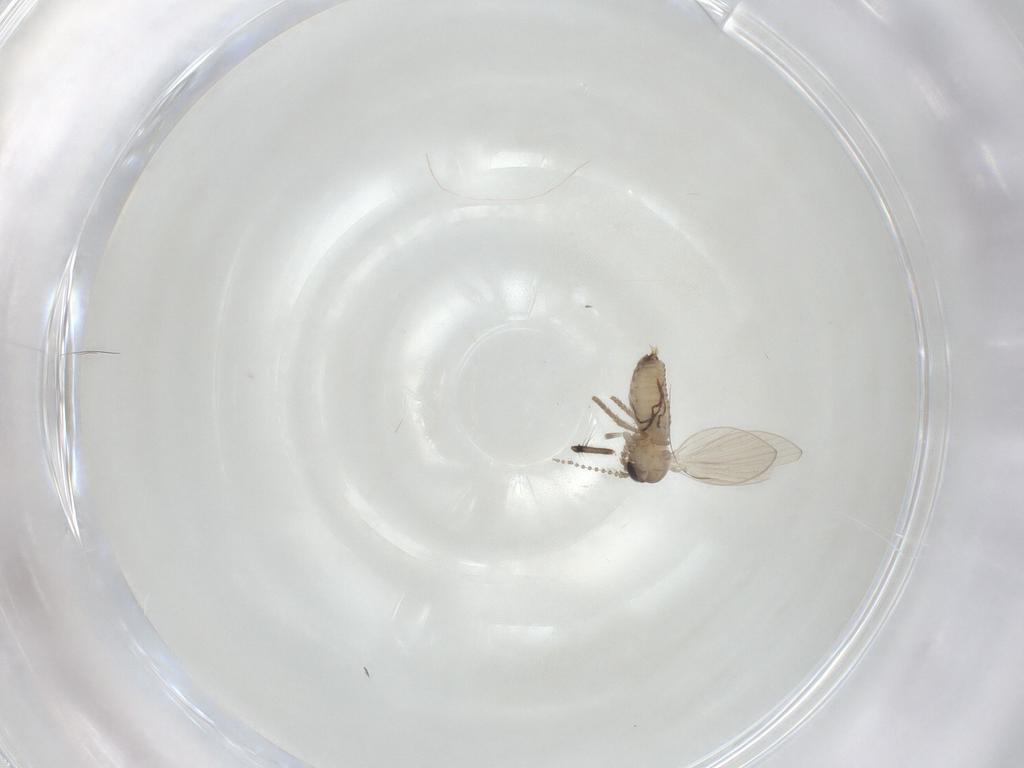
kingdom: Animalia
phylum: Arthropoda
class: Insecta
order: Diptera
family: Psychodidae
